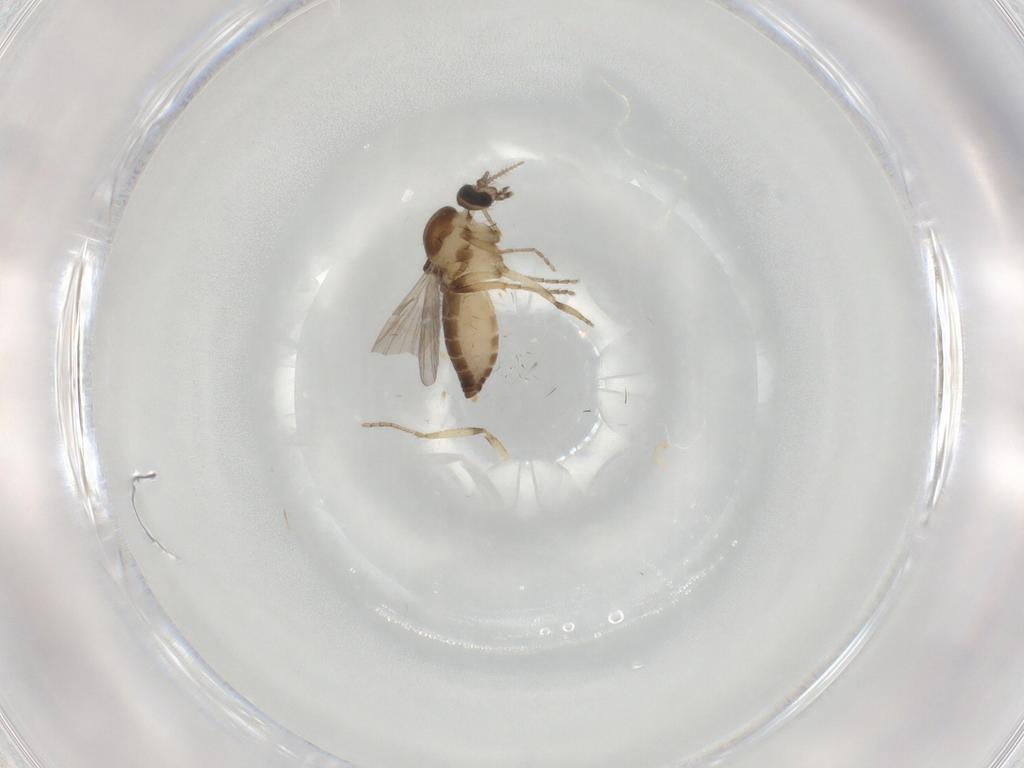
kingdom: Animalia
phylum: Arthropoda
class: Insecta
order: Diptera
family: Ceratopogonidae
